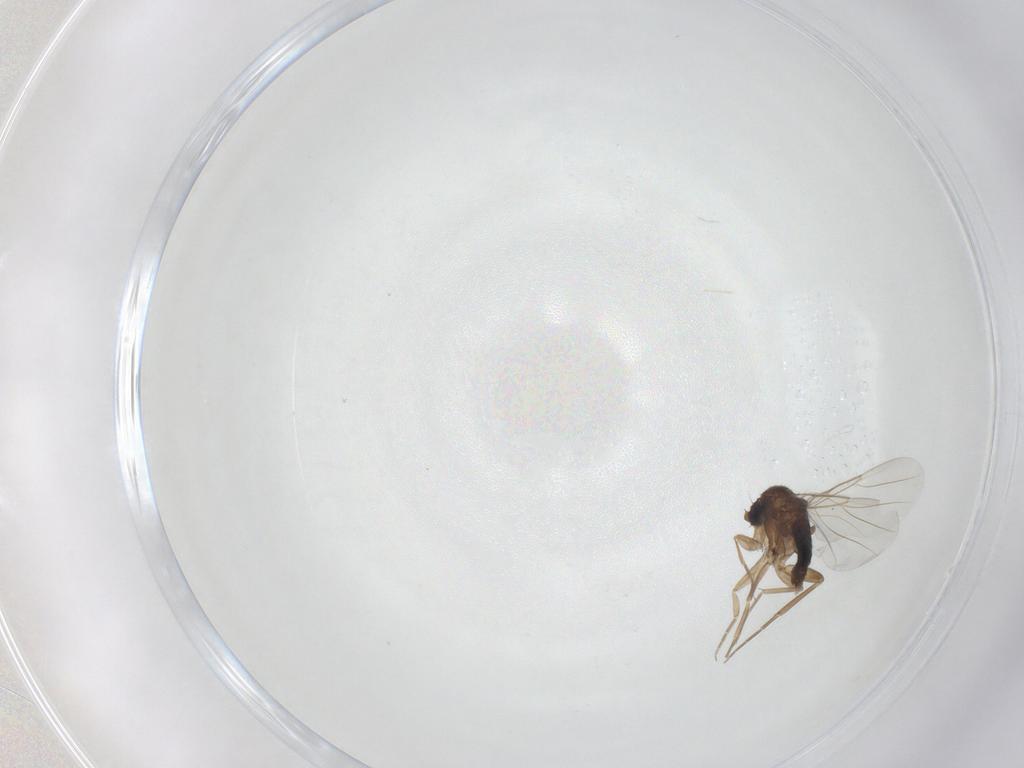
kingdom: Animalia
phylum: Arthropoda
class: Insecta
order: Diptera
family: Phoridae
